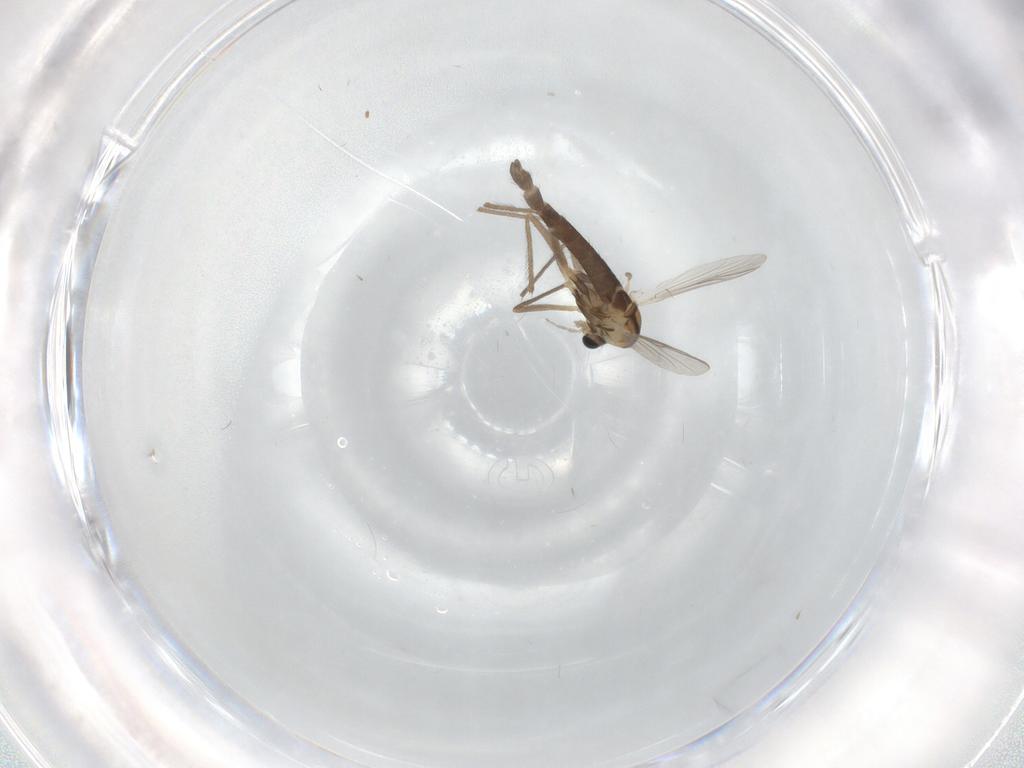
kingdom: Animalia
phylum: Arthropoda
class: Insecta
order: Diptera
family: Chironomidae
